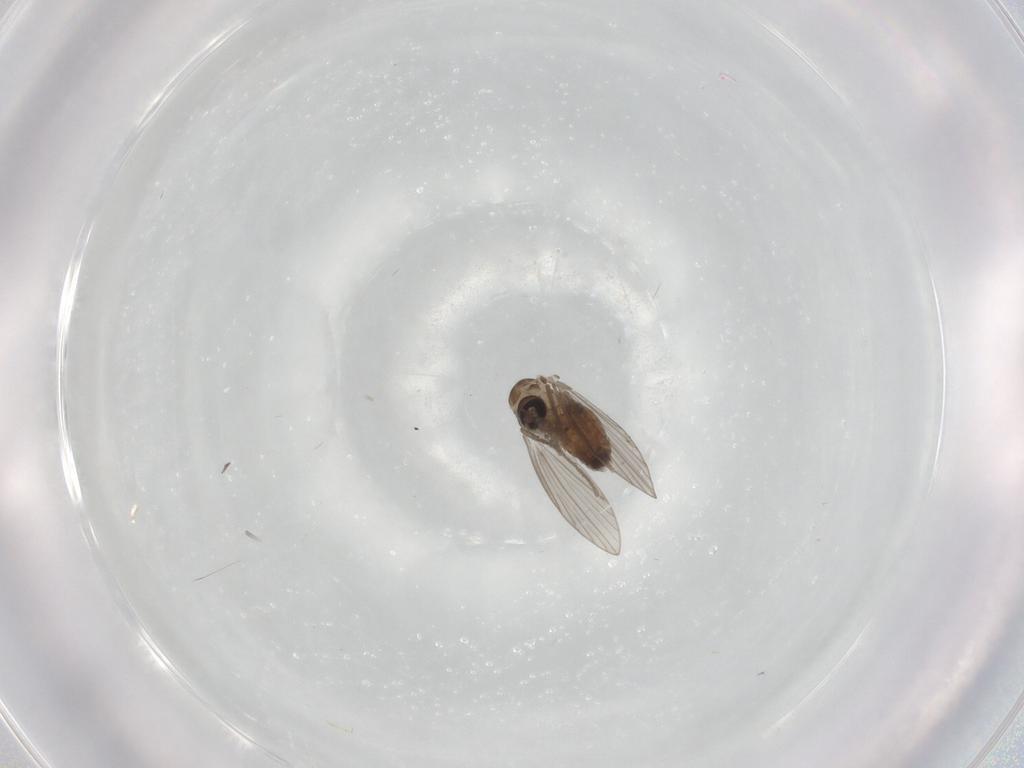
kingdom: Animalia
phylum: Arthropoda
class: Insecta
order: Diptera
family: Psychodidae
